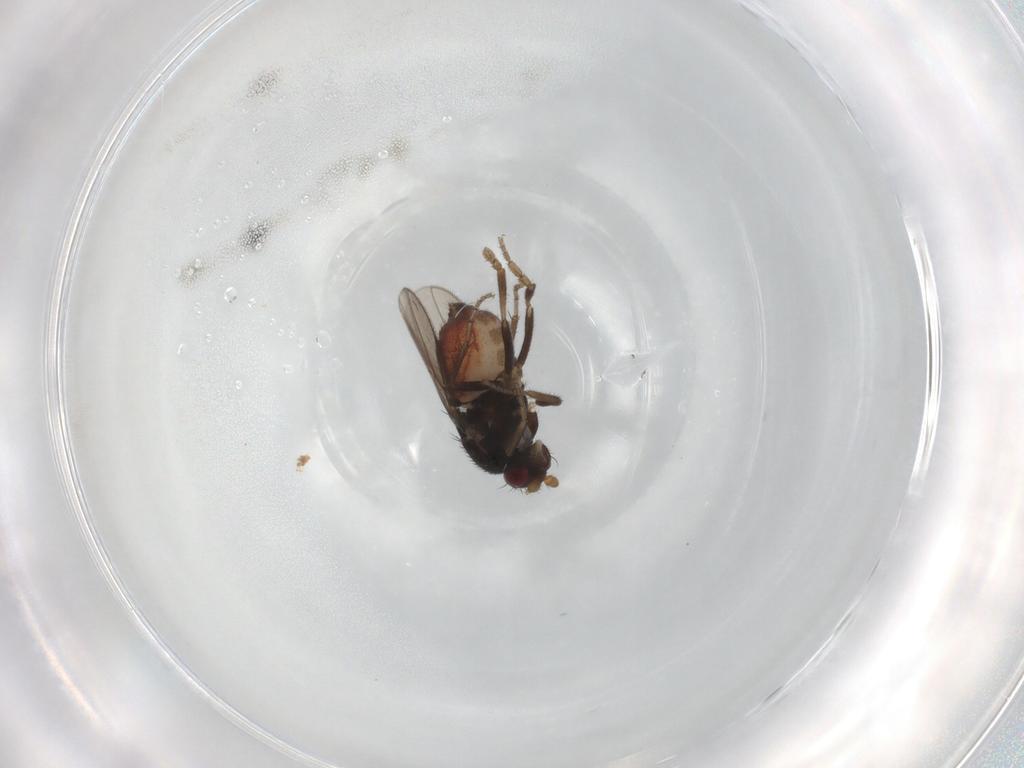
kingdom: Animalia
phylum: Arthropoda
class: Insecta
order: Diptera
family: Sphaeroceridae
